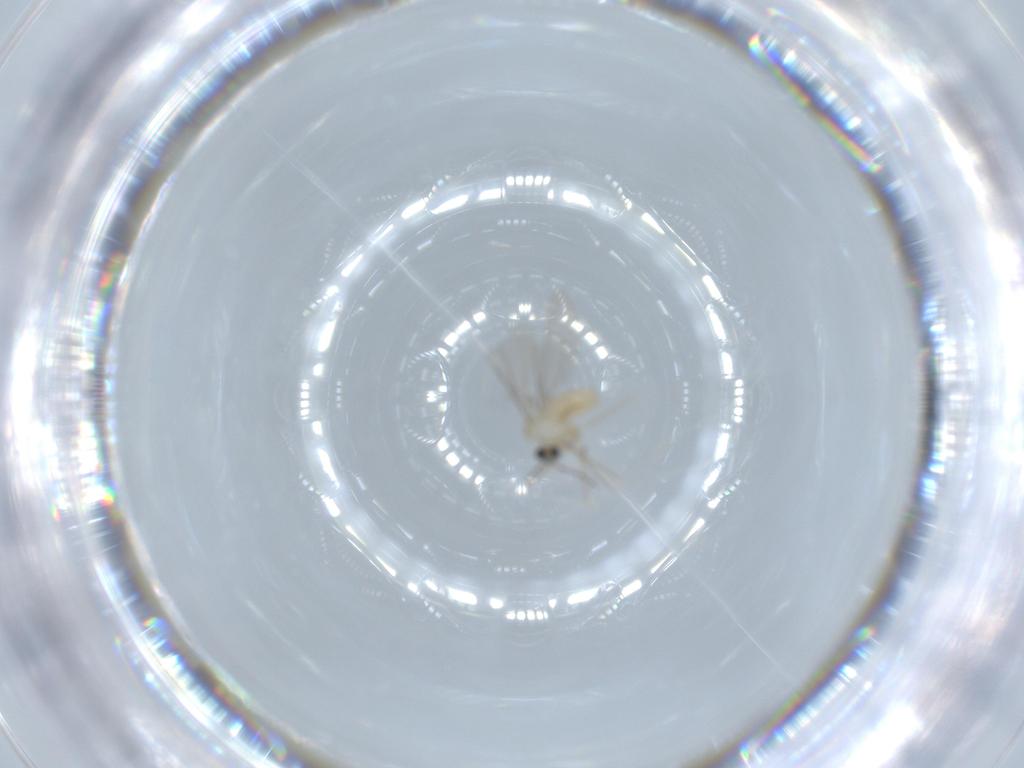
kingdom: Animalia
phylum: Arthropoda
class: Insecta
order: Diptera
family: Cecidomyiidae
